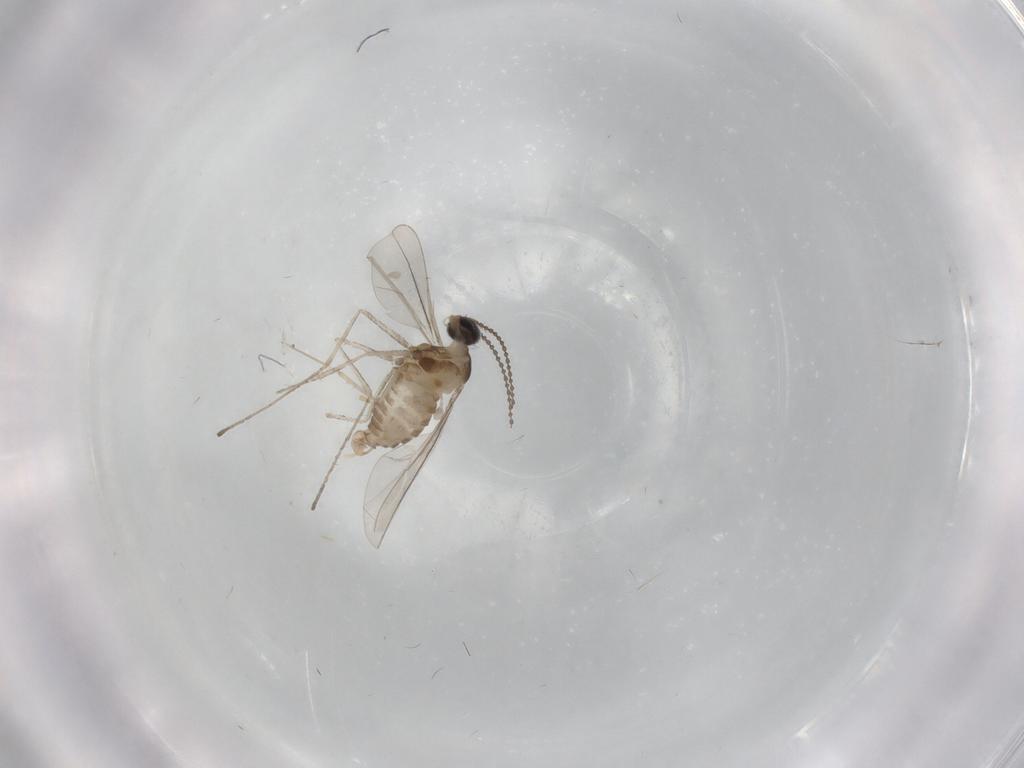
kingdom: Animalia
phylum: Arthropoda
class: Insecta
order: Diptera
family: Cecidomyiidae
